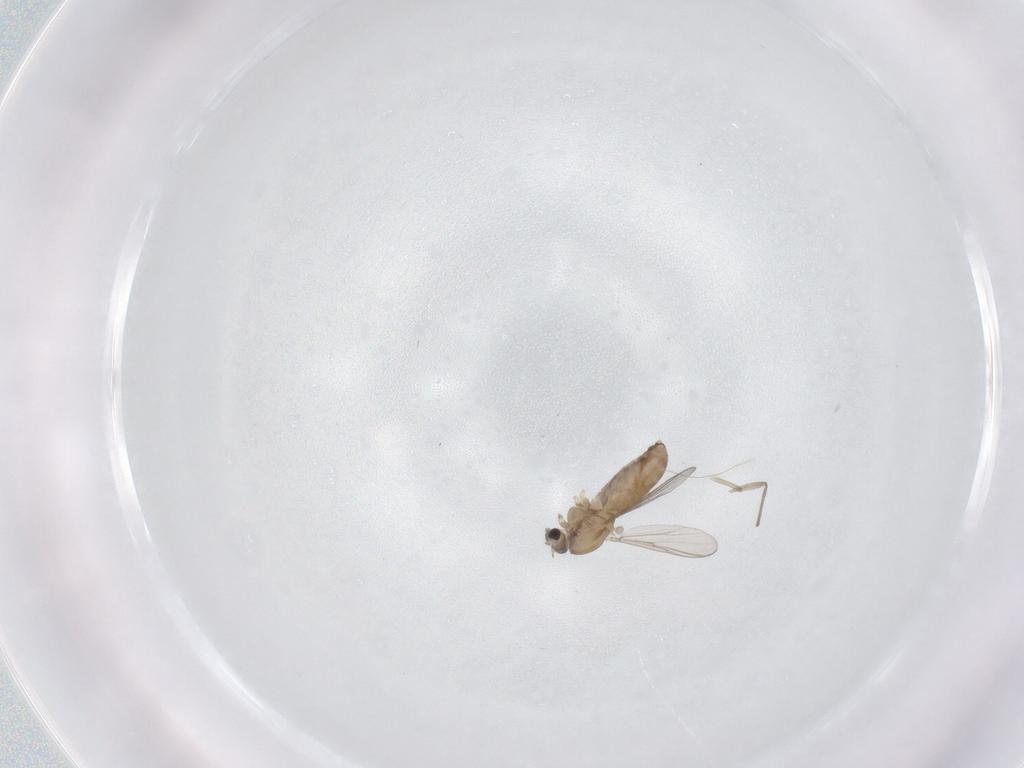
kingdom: Animalia
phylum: Arthropoda
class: Insecta
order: Diptera
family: Chironomidae
